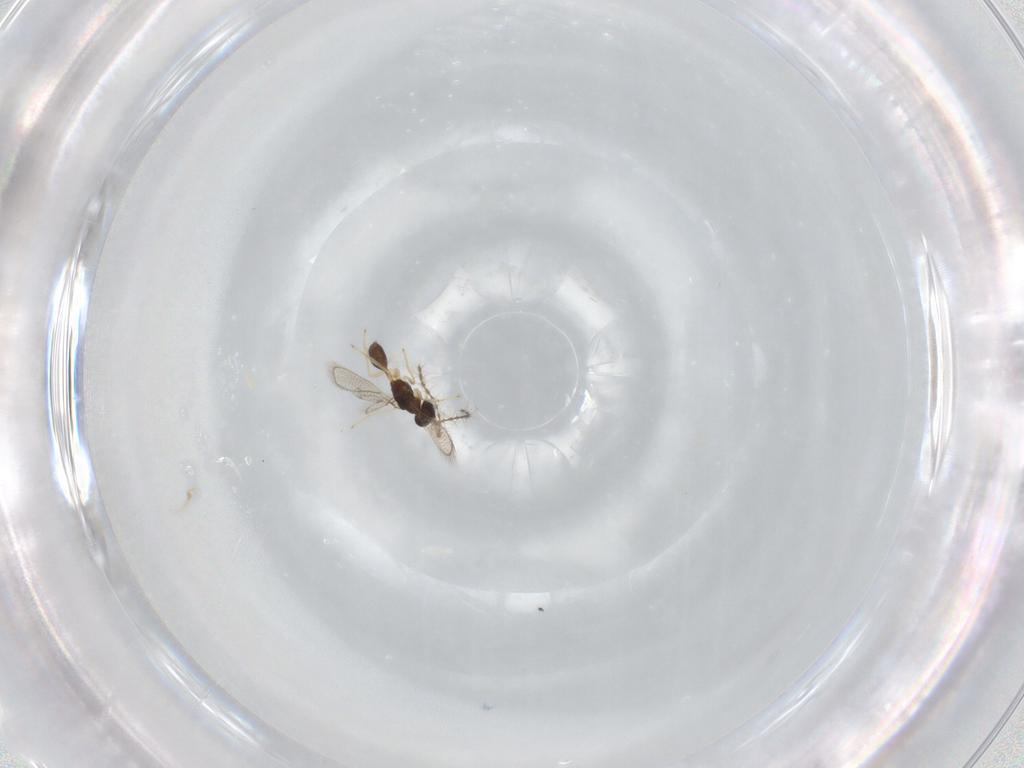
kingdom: Animalia
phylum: Arthropoda
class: Insecta
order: Hymenoptera
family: Diparidae
